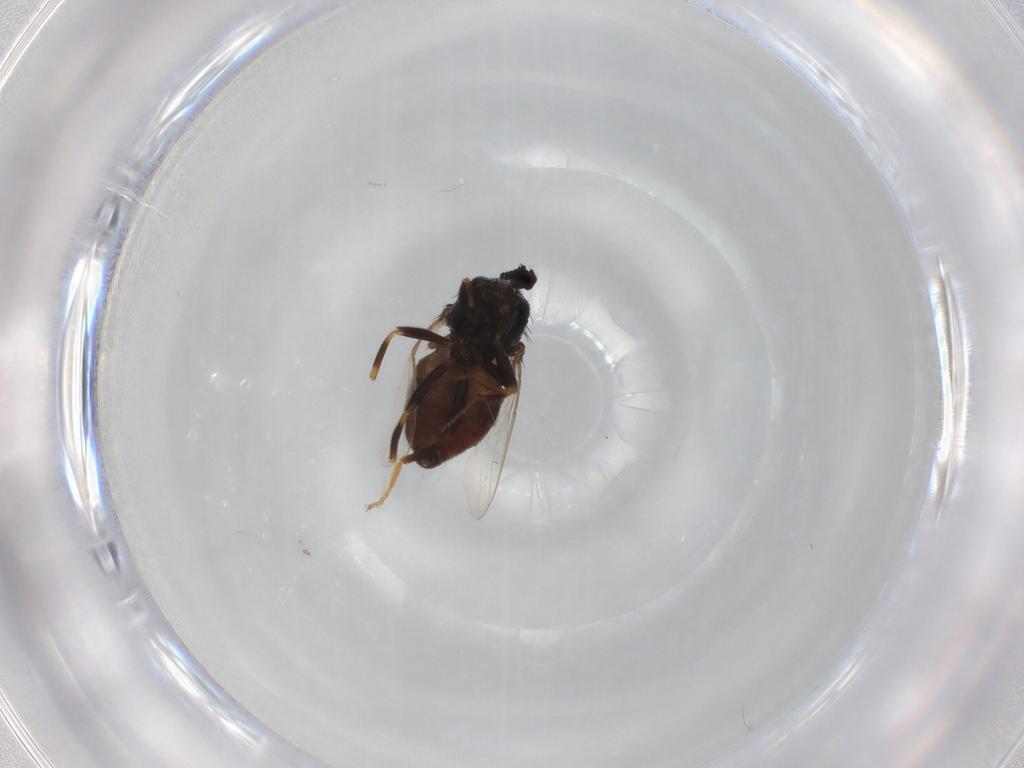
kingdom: Animalia
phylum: Arthropoda
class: Insecta
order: Diptera
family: Chloropidae
